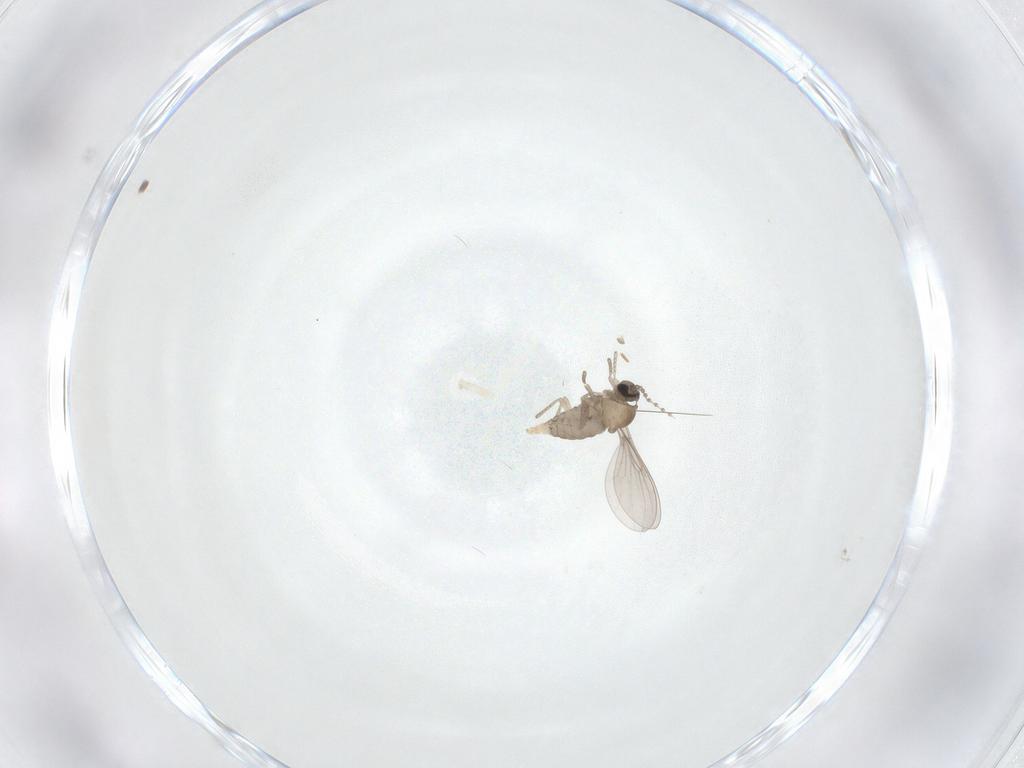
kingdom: Animalia
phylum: Arthropoda
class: Insecta
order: Diptera
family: Cecidomyiidae
